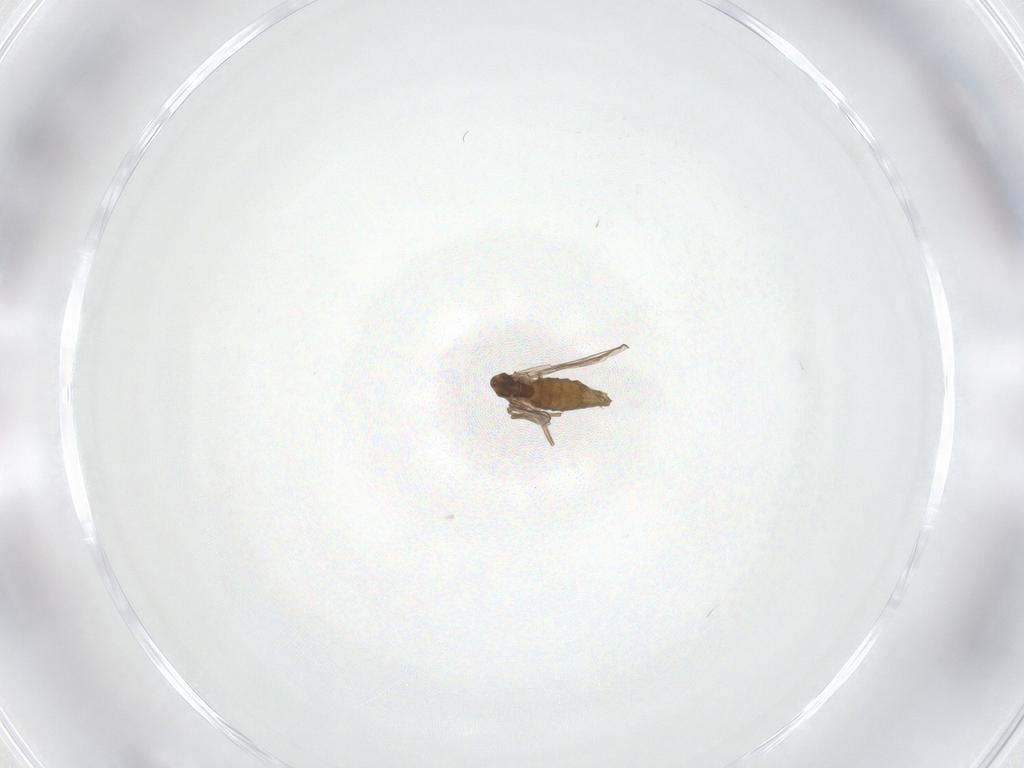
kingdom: Animalia
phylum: Arthropoda
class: Insecta
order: Diptera
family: Chironomidae
